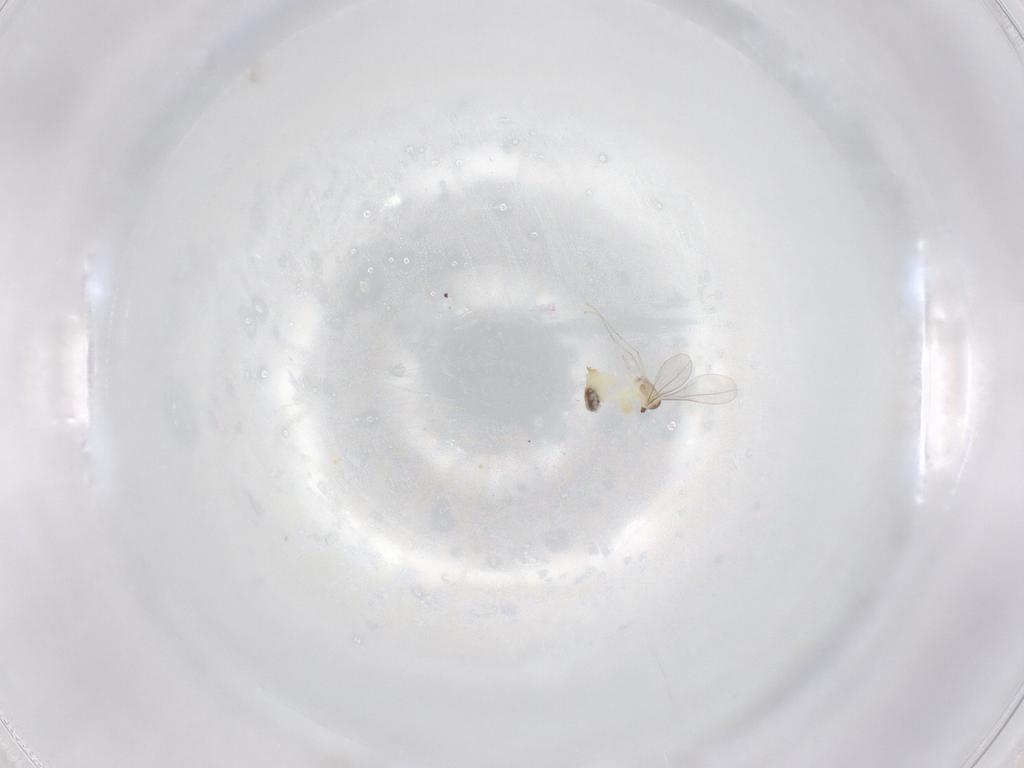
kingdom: Animalia
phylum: Arthropoda
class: Insecta
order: Diptera
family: Cecidomyiidae
